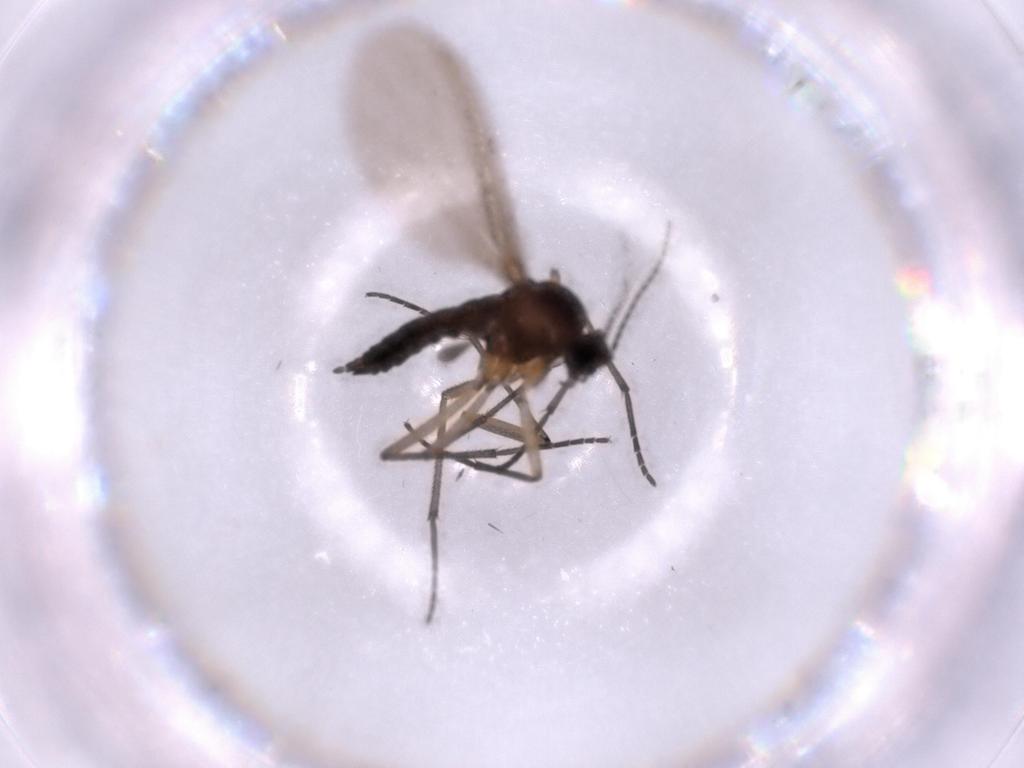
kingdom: Animalia
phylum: Arthropoda
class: Insecta
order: Diptera
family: Sciaridae
